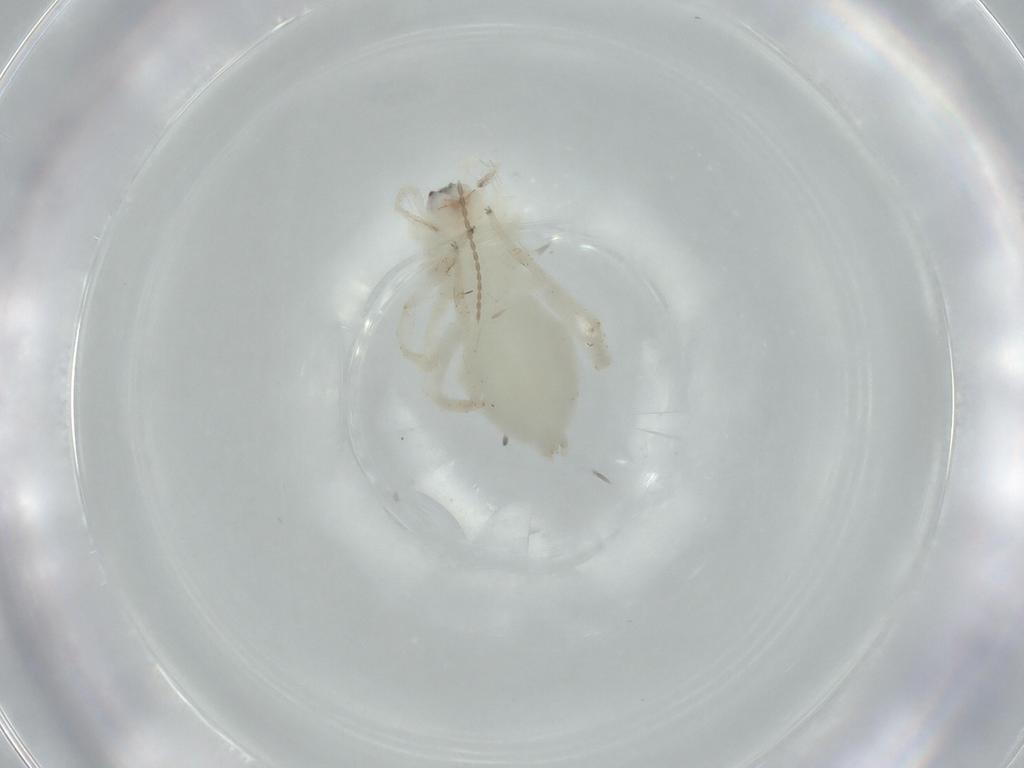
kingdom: Animalia
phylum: Arthropoda
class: Arachnida
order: Araneae
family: Anyphaenidae
